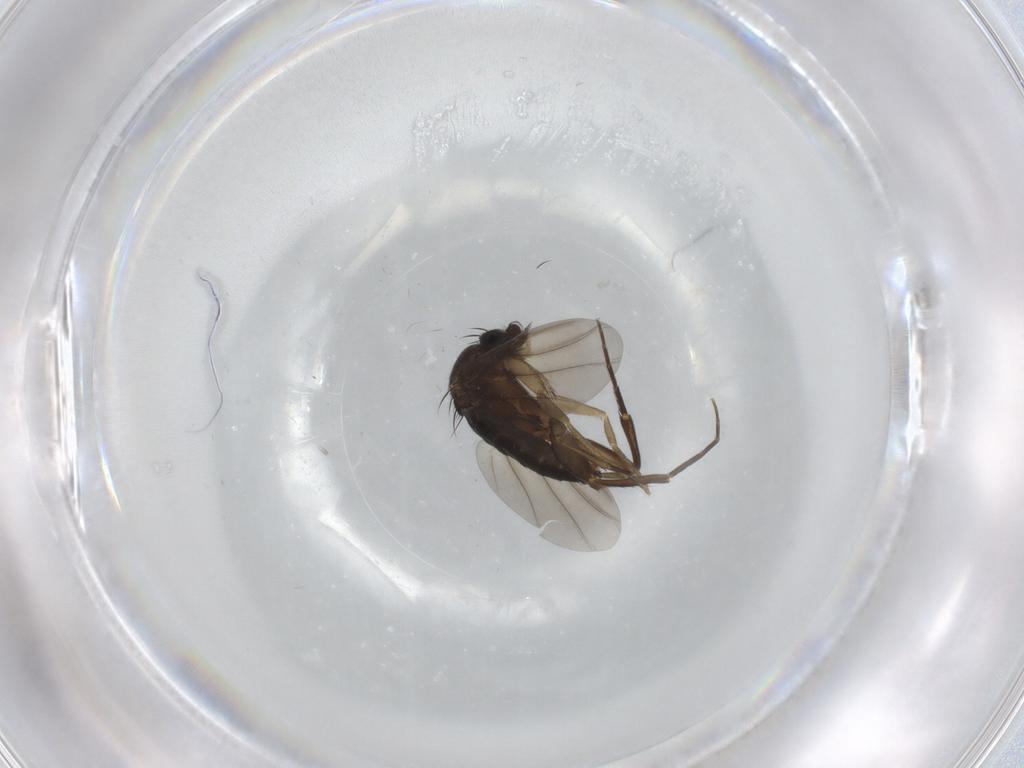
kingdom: Animalia
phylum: Arthropoda
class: Insecta
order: Diptera
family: Phoridae
